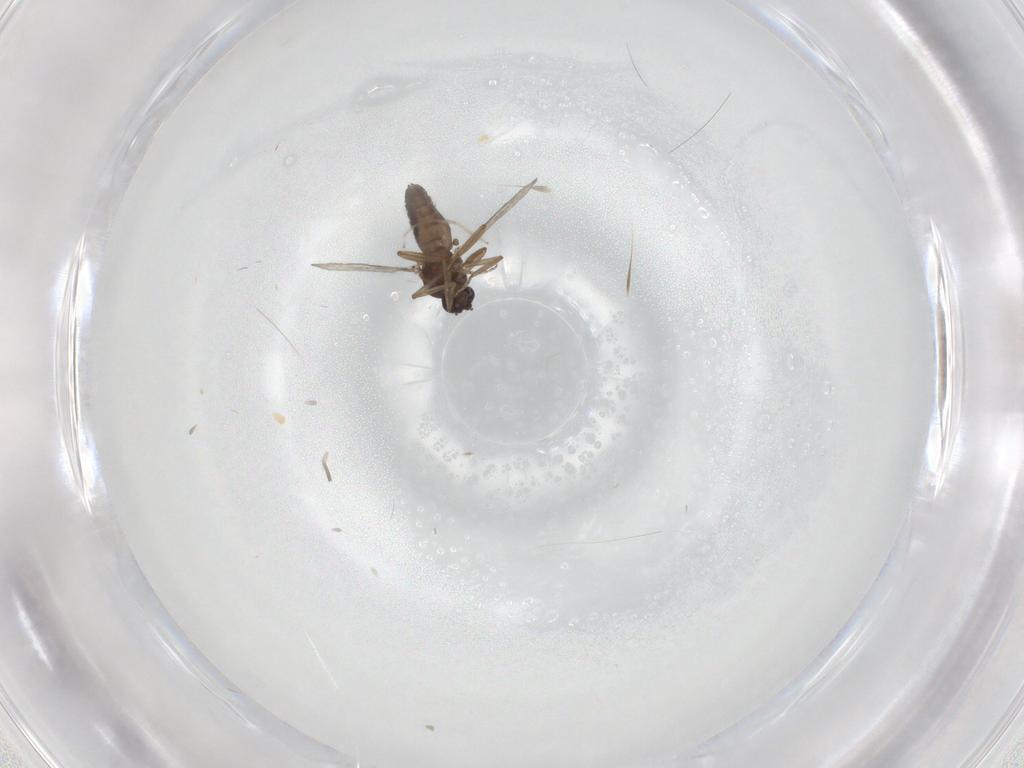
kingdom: Animalia
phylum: Arthropoda
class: Insecta
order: Diptera
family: Ceratopogonidae
